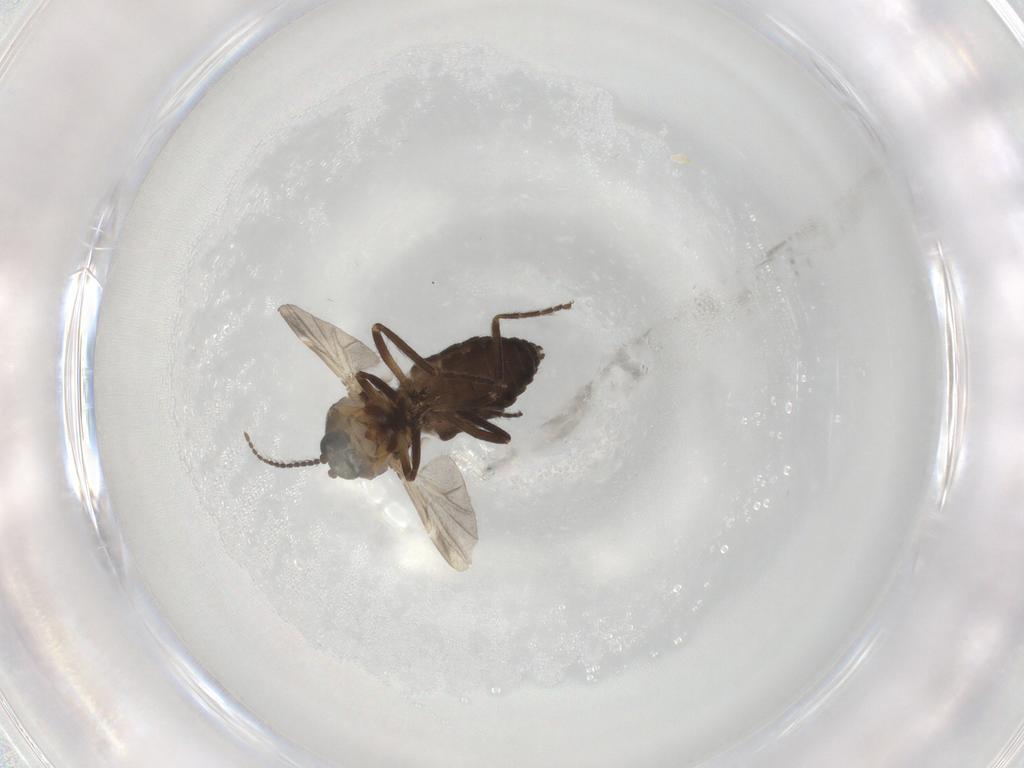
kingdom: Animalia
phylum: Arthropoda
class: Insecta
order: Diptera
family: Ceratopogonidae
